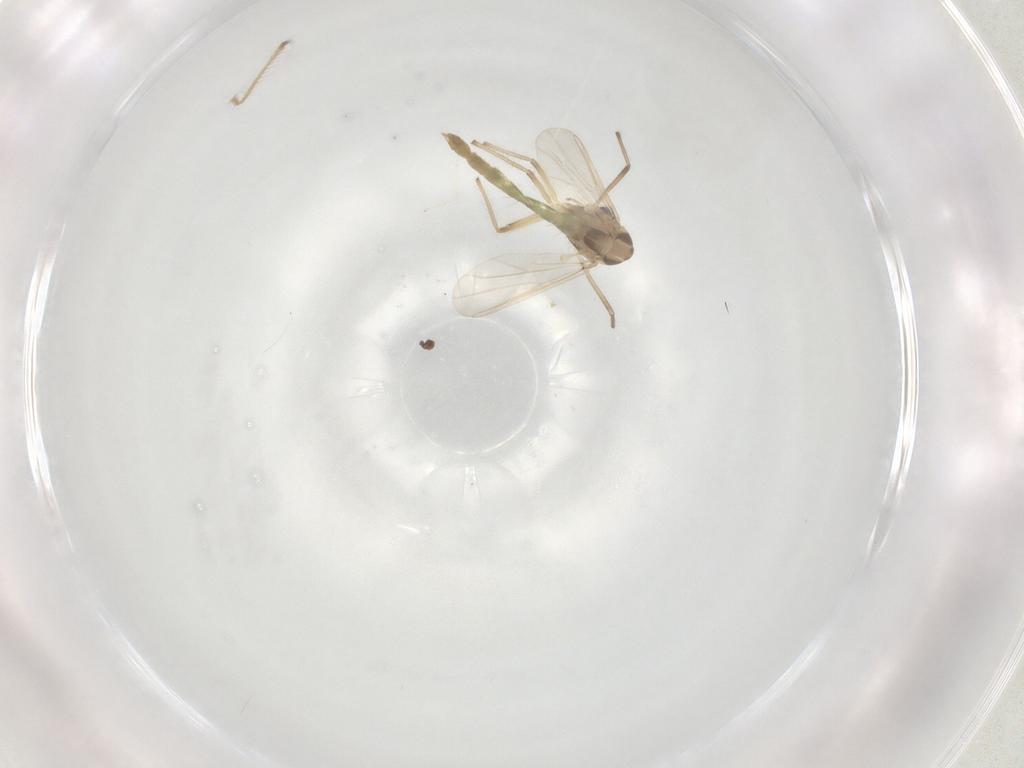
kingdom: Animalia
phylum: Arthropoda
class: Insecta
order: Diptera
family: Chironomidae
